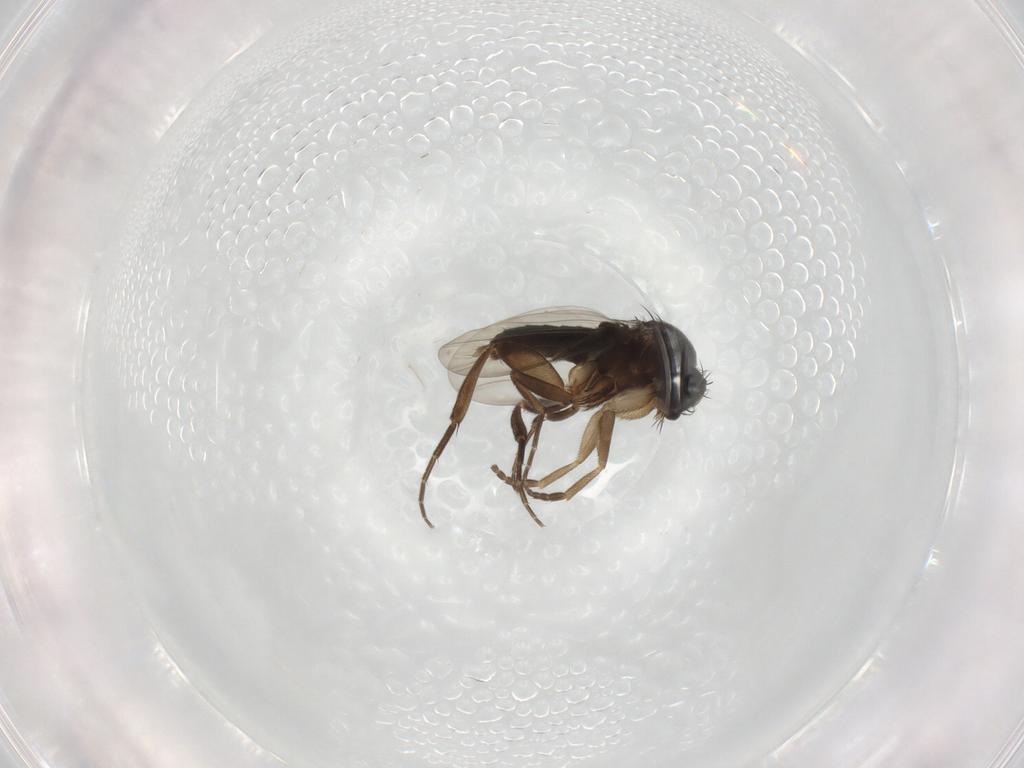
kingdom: Animalia
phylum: Arthropoda
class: Insecta
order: Diptera
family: Phoridae
